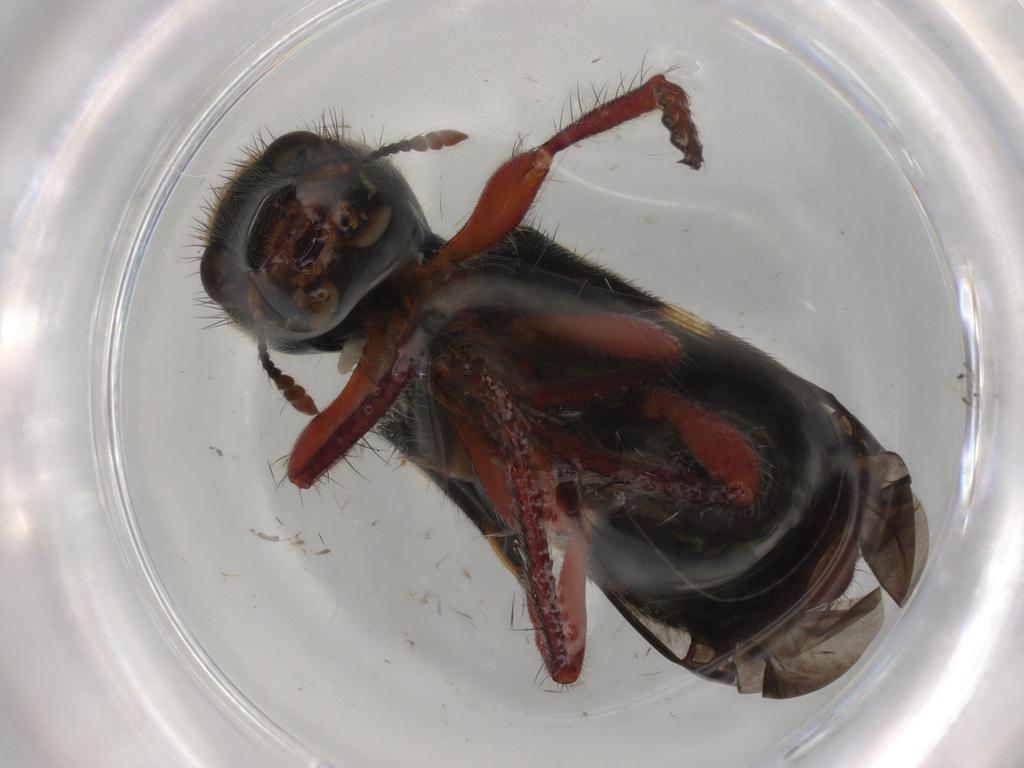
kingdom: Animalia
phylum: Arthropoda
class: Insecta
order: Coleoptera
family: Cleridae
